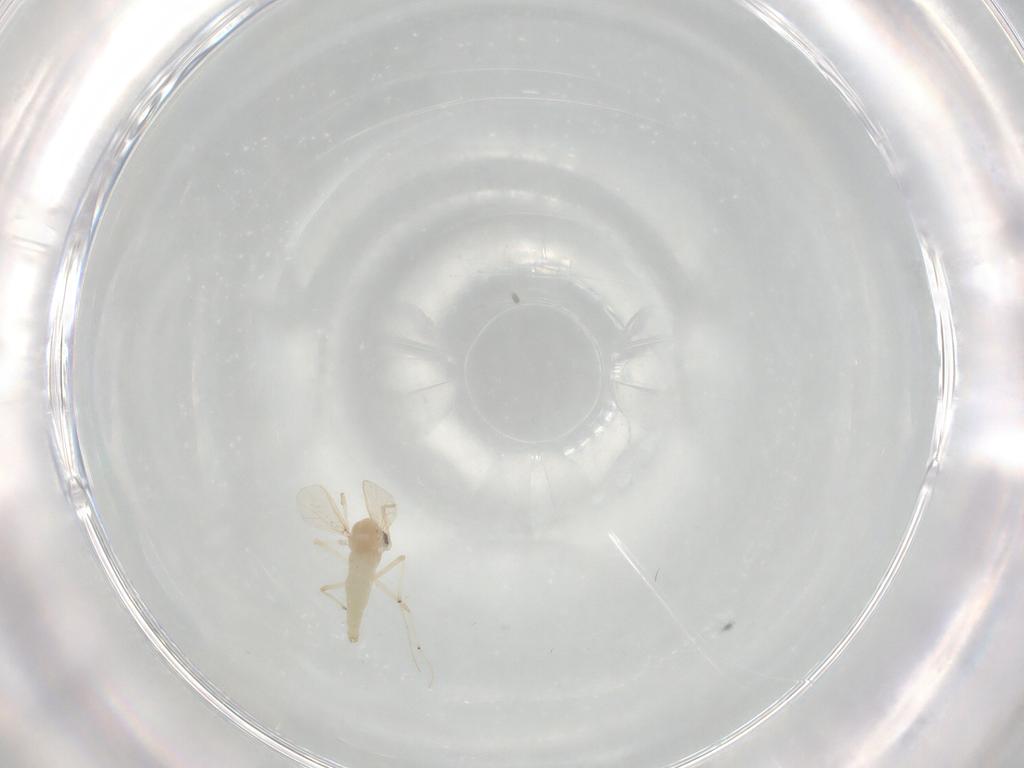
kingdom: Animalia
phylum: Arthropoda
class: Insecta
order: Diptera
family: Chironomidae
